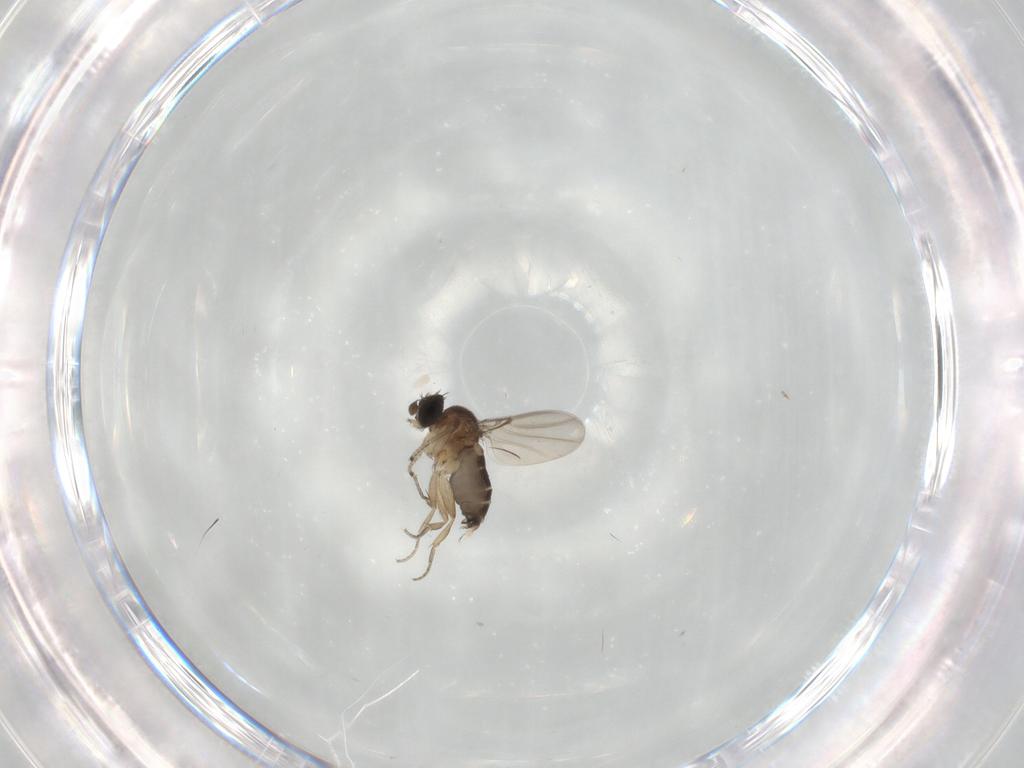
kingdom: Animalia
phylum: Arthropoda
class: Insecta
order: Diptera
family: Phoridae
